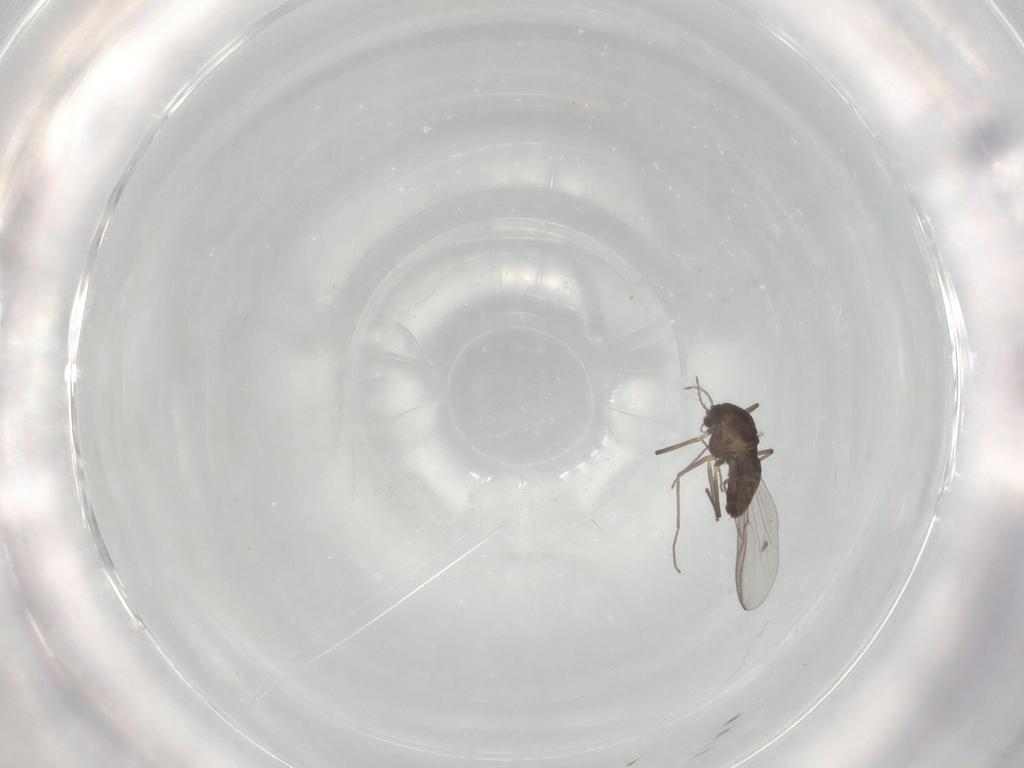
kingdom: Animalia
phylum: Arthropoda
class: Insecta
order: Diptera
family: Chironomidae
